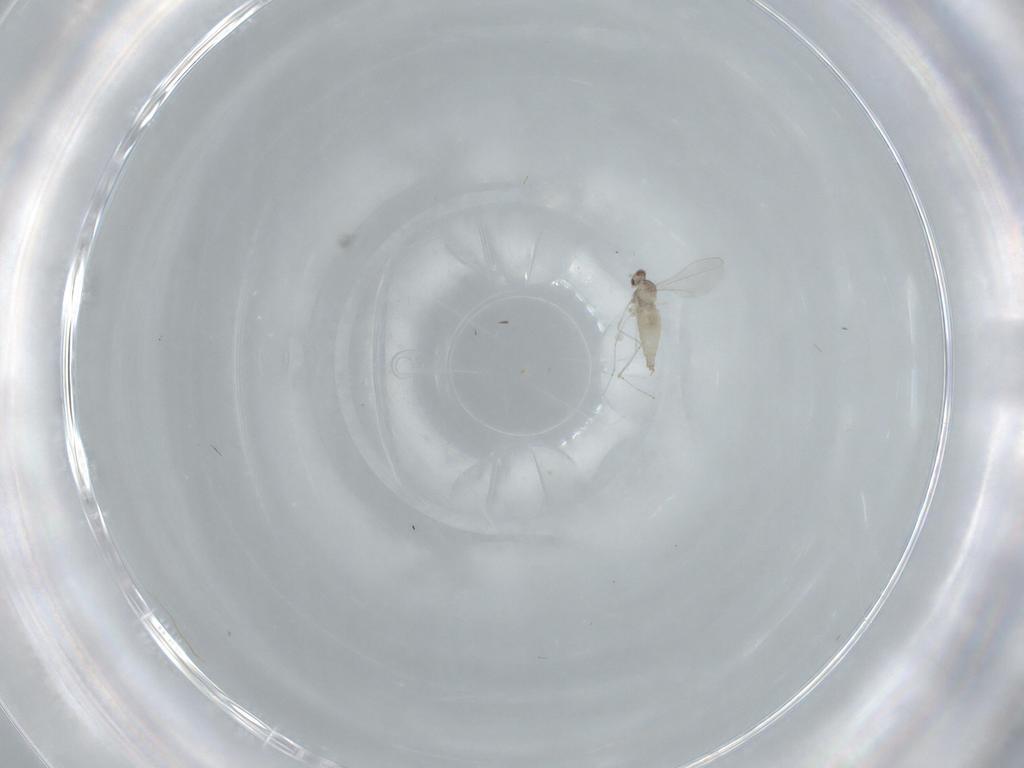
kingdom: Animalia
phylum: Arthropoda
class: Insecta
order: Diptera
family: Cecidomyiidae
